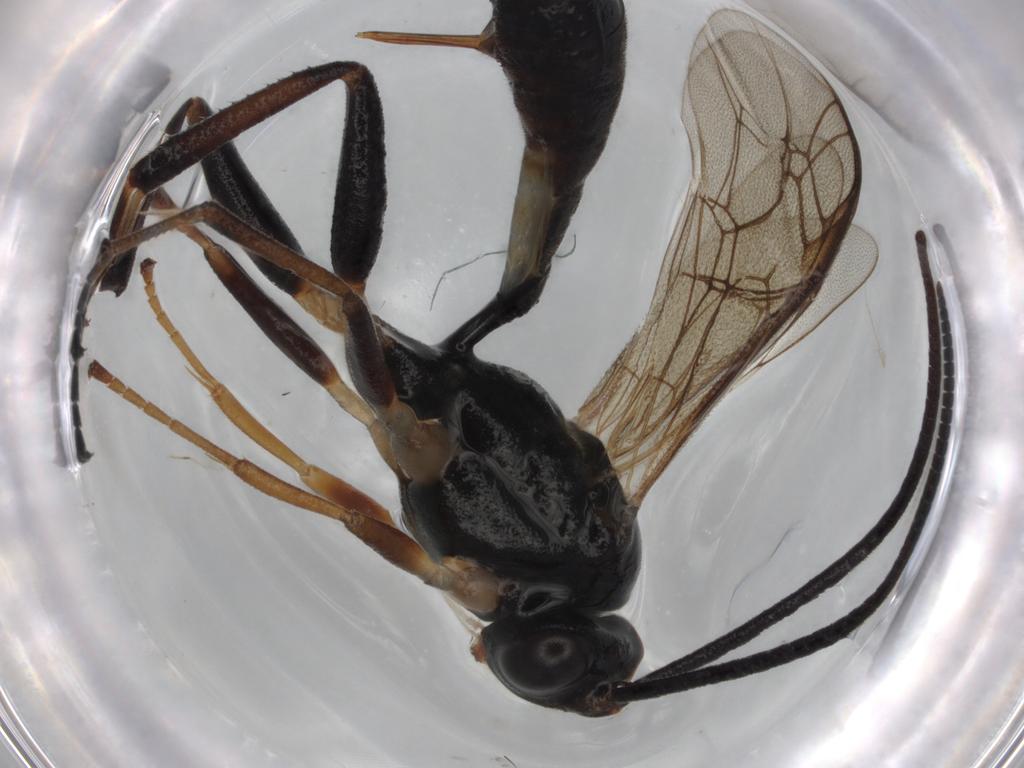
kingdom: Animalia
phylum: Arthropoda
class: Insecta
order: Hymenoptera
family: Ichneumonidae
